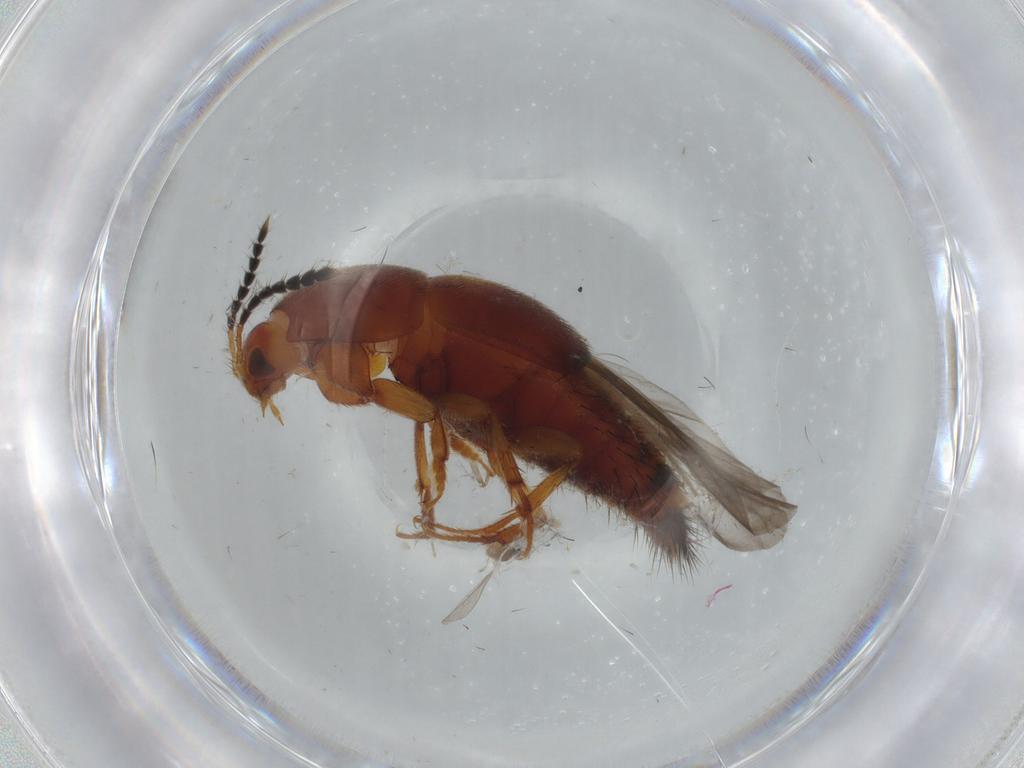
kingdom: Animalia
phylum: Arthropoda
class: Insecta
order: Coleoptera
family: Staphylinidae
